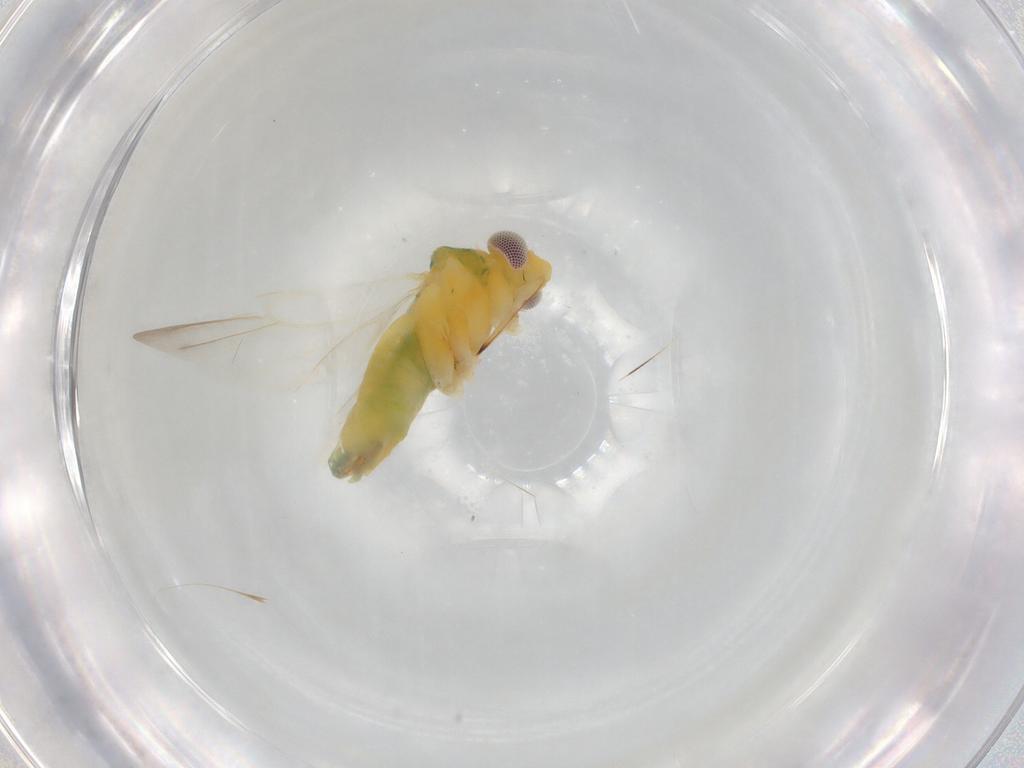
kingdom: Animalia
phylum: Arthropoda
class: Insecta
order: Hemiptera
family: Miridae
